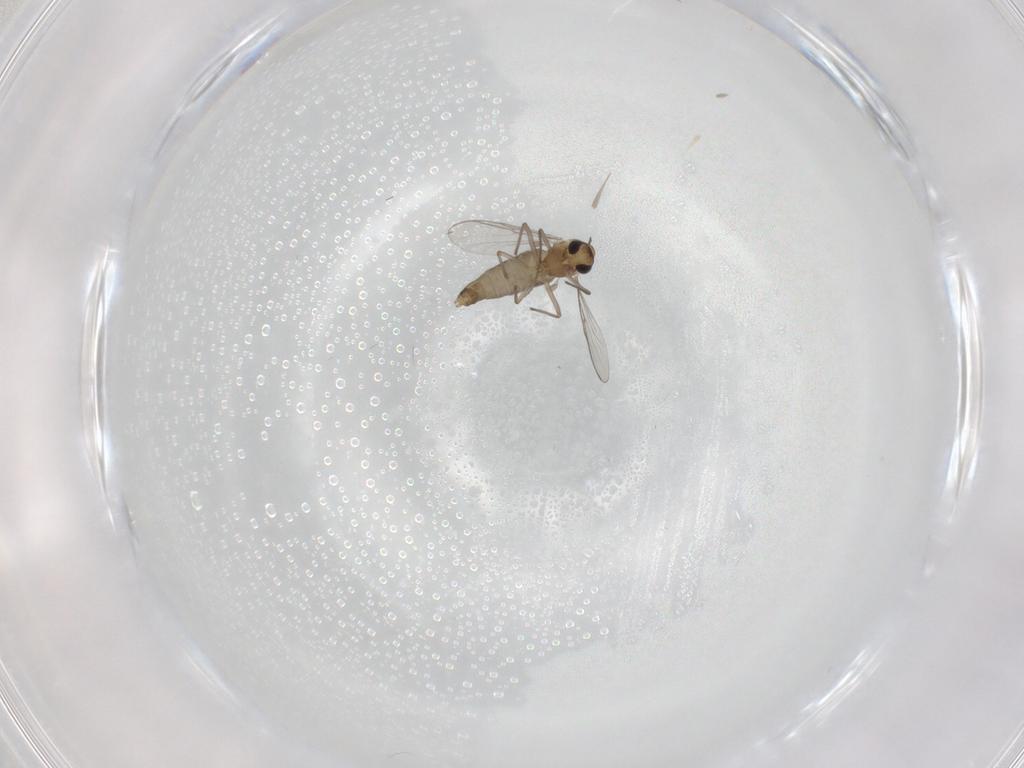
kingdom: Animalia
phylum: Arthropoda
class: Insecta
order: Diptera
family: Chironomidae
